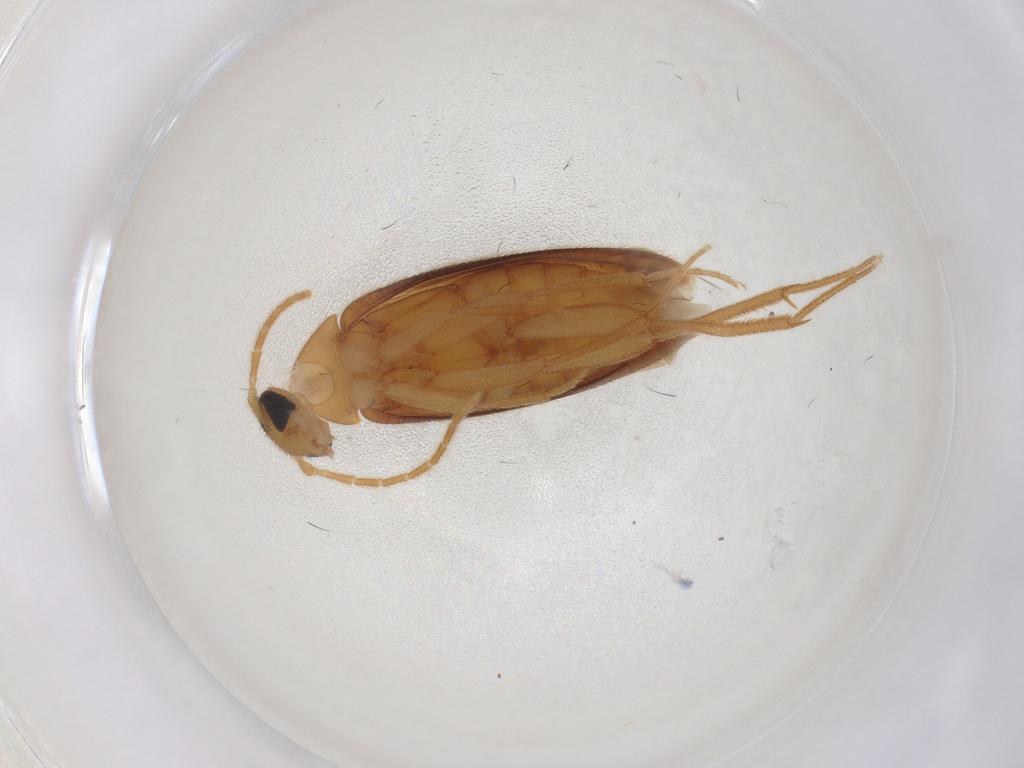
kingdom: Animalia
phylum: Arthropoda
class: Insecta
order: Coleoptera
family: Scraptiidae
